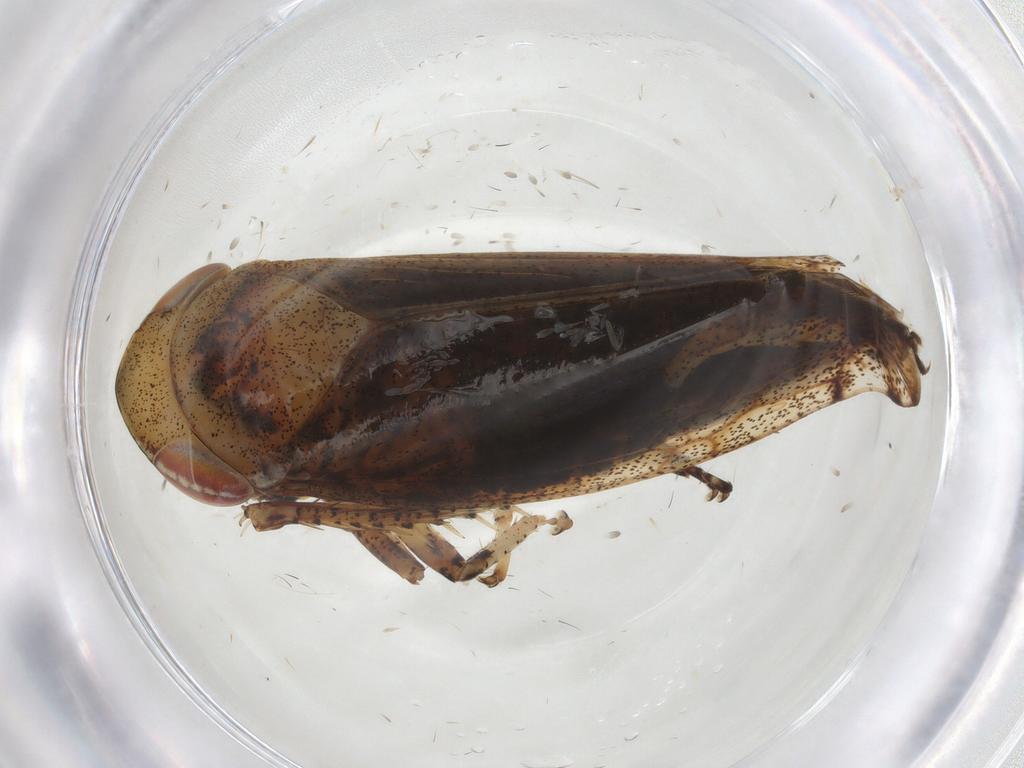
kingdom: Animalia
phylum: Arthropoda
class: Insecta
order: Hemiptera
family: Cicadellidae
